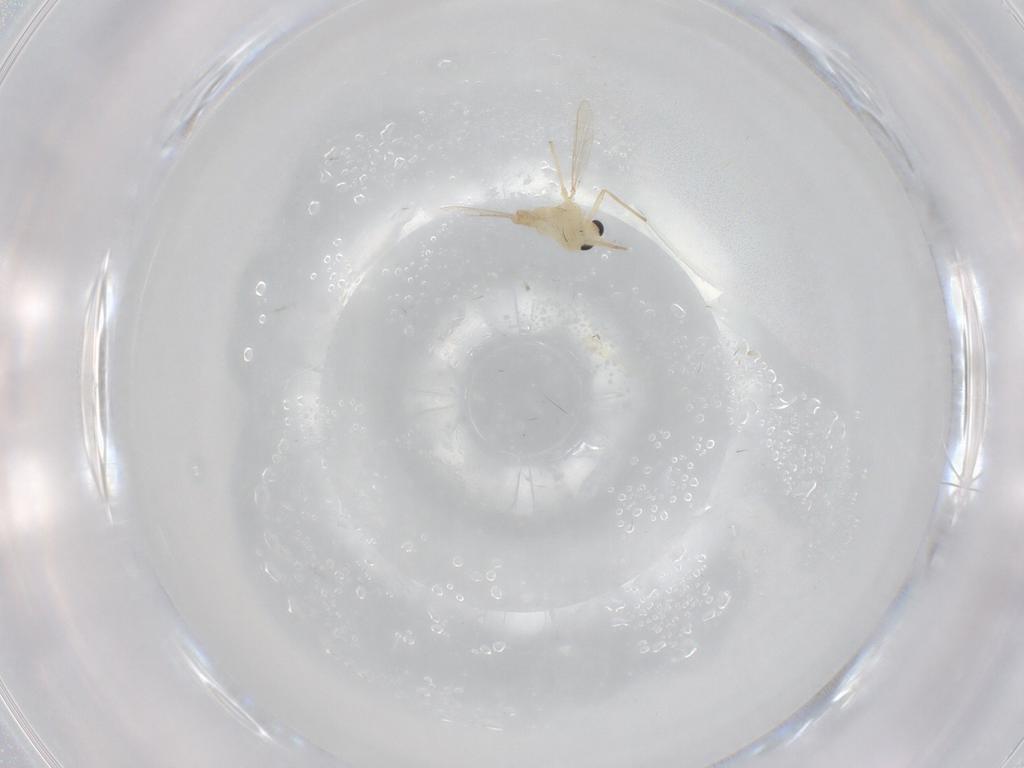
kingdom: Animalia
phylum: Arthropoda
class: Insecta
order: Diptera
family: Chironomidae
